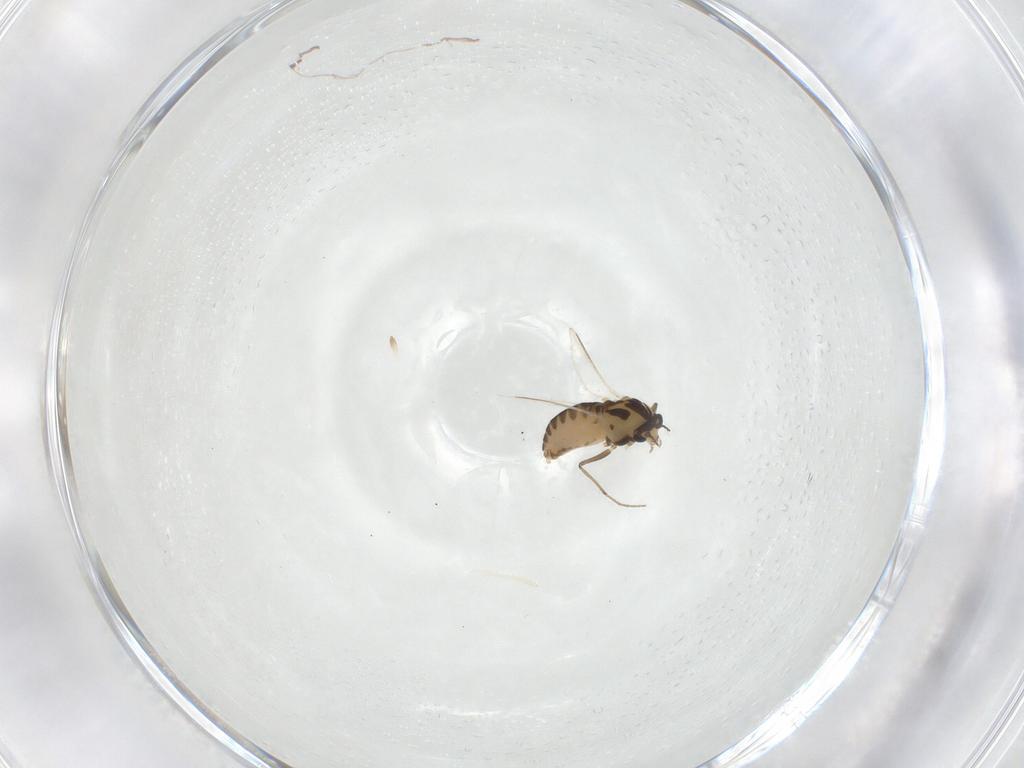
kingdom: Animalia
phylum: Arthropoda
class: Insecta
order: Diptera
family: Chironomidae
